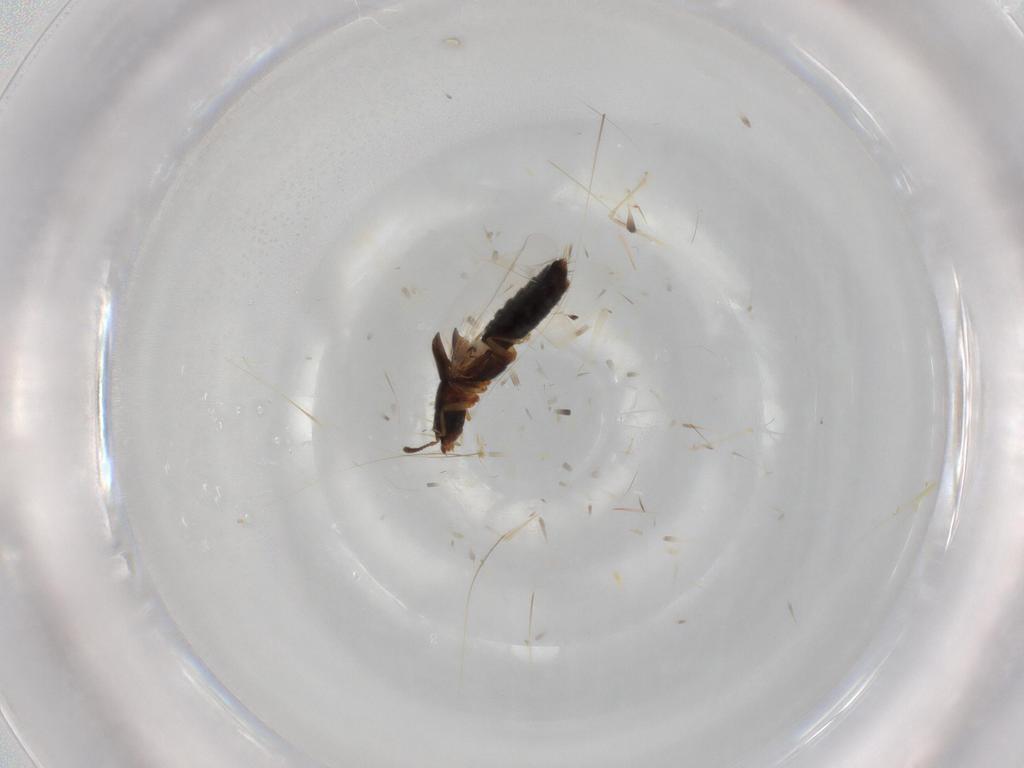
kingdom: Animalia
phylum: Arthropoda
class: Insecta
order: Coleoptera
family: Staphylinidae
